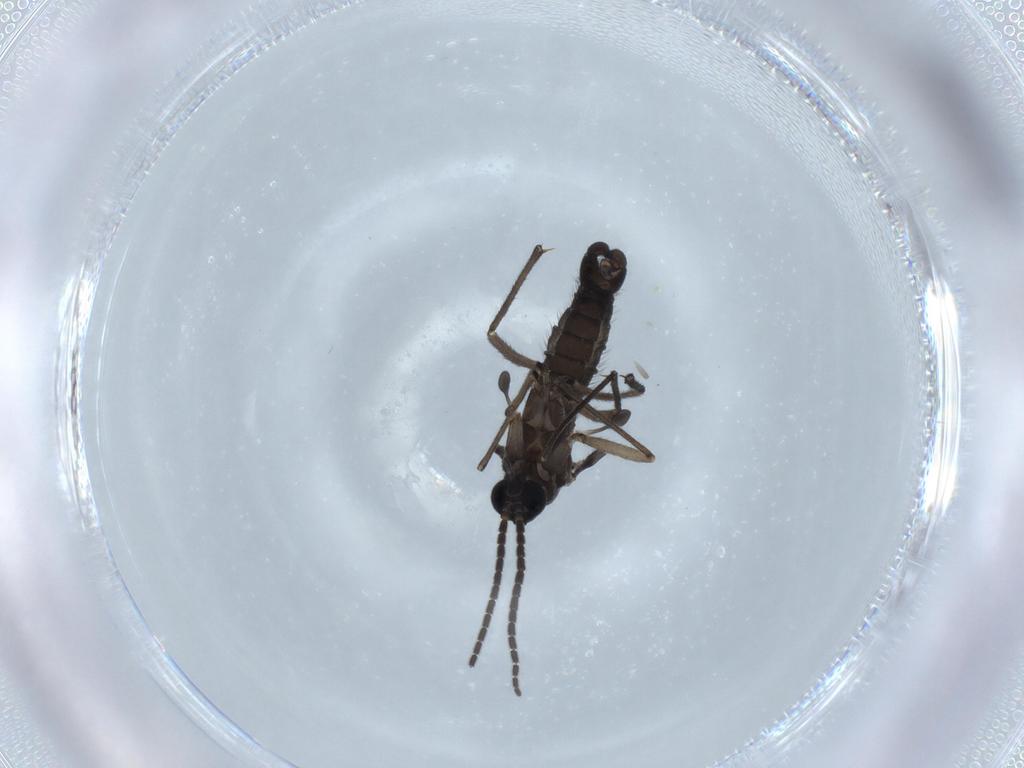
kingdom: Animalia
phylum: Arthropoda
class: Insecta
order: Diptera
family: Sciaridae
